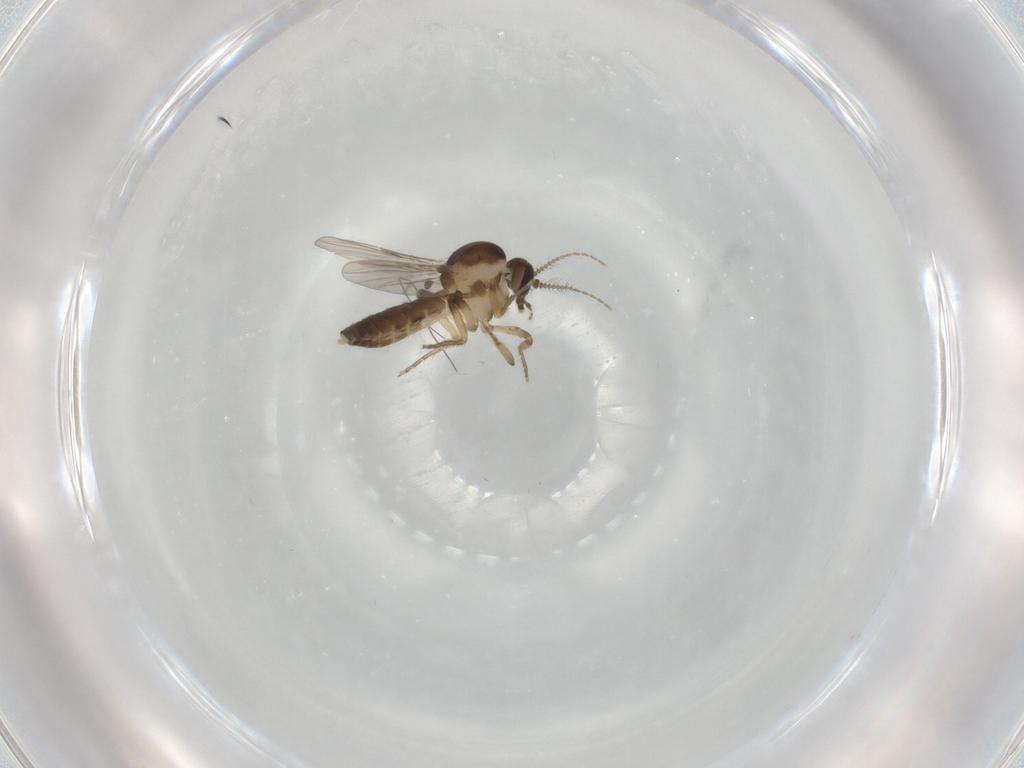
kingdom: Animalia
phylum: Arthropoda
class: Insecta
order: Diptera
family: Ceratopogonidae
